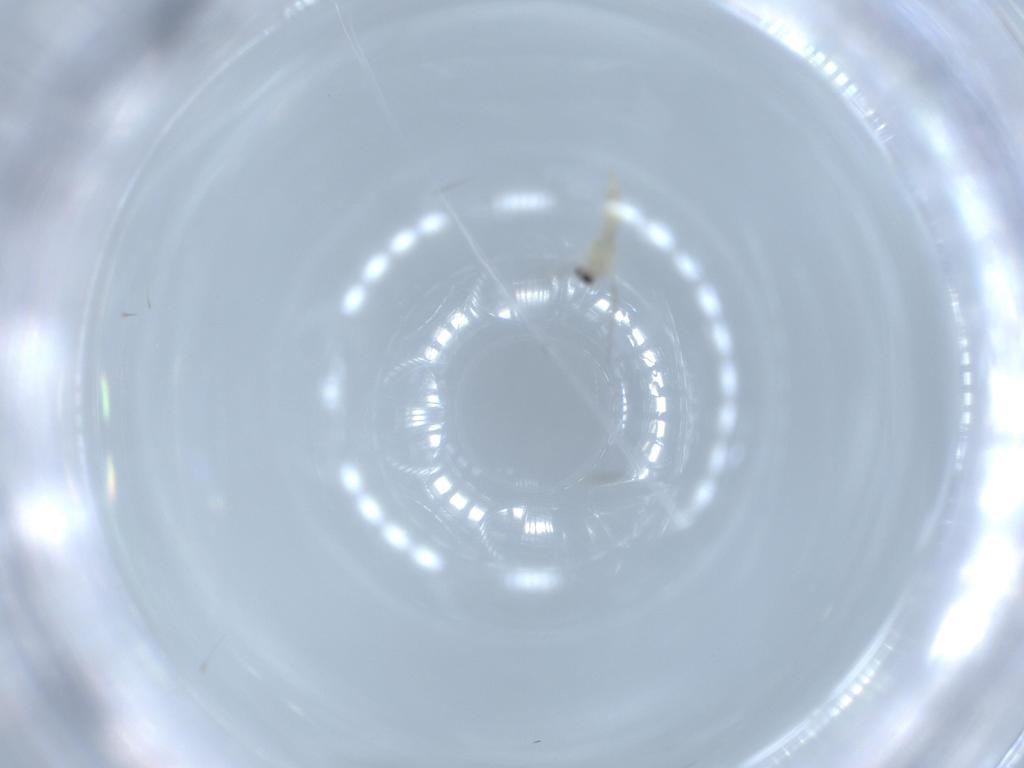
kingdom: Animalia
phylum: Arthropoda
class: Insecta
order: Diptera
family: Cecidomyiidae
